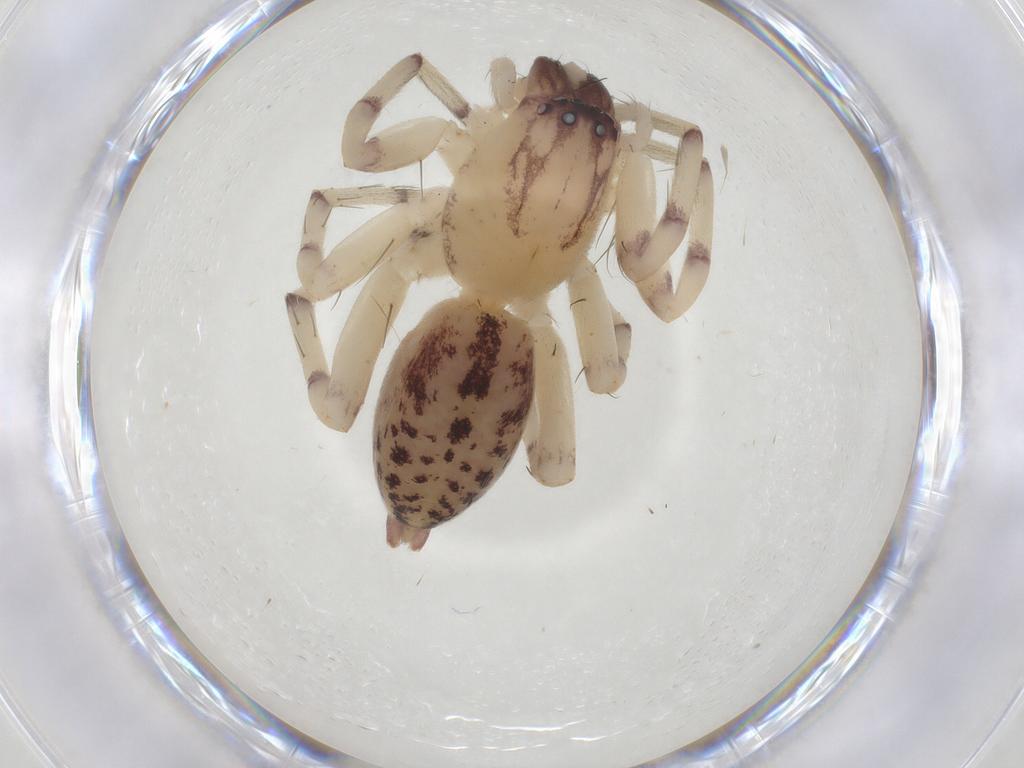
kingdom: Animalia
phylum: Arthropoda
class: Arachnida
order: Araneae
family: Clubionidae
